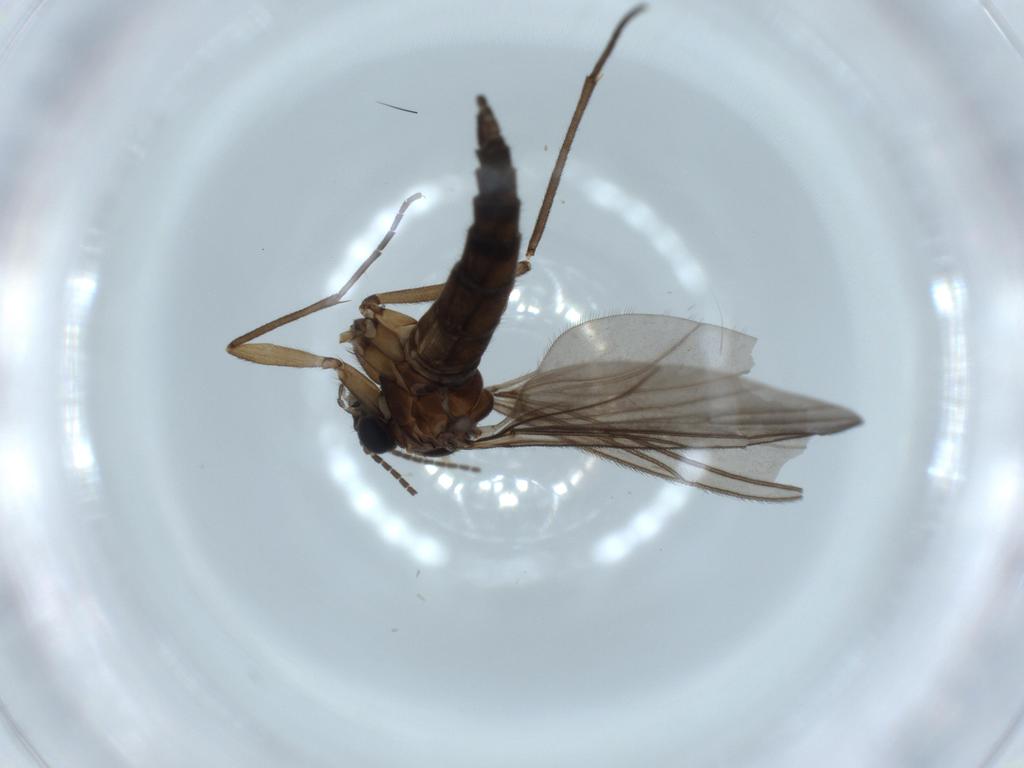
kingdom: Animalia
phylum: Arthropoda
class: Insecta
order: Diptera
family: Sciaridae
